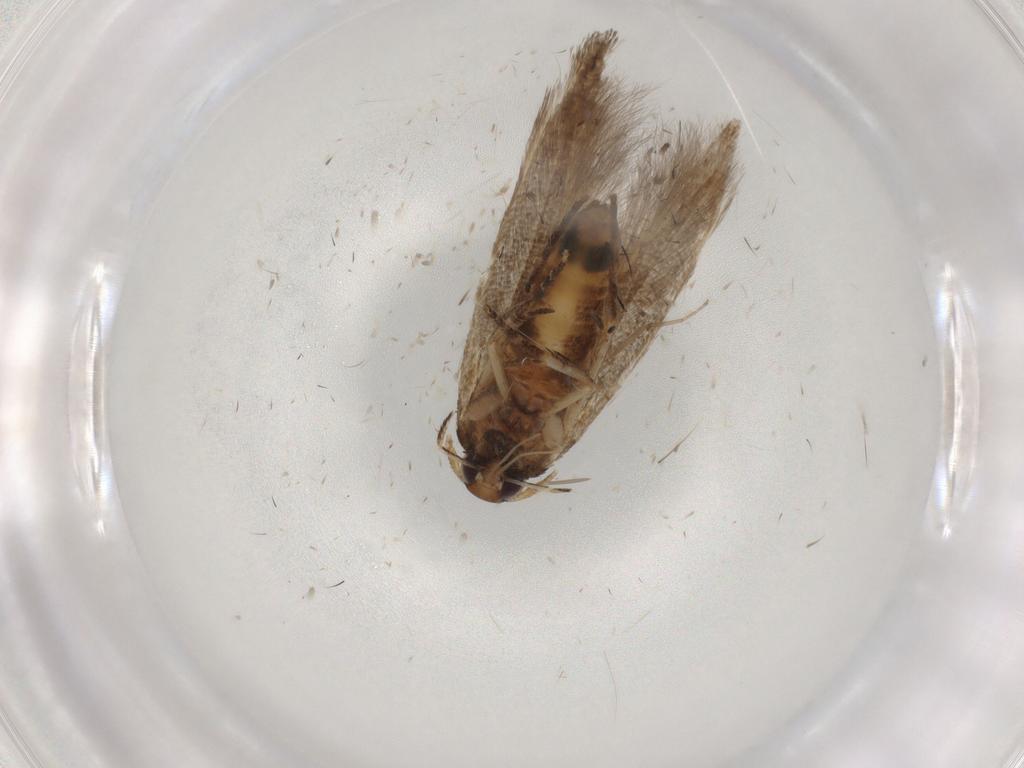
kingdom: Animalia
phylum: Arthropoda
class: Insecta
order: Lepidoptera
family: Cosmopterigidae
